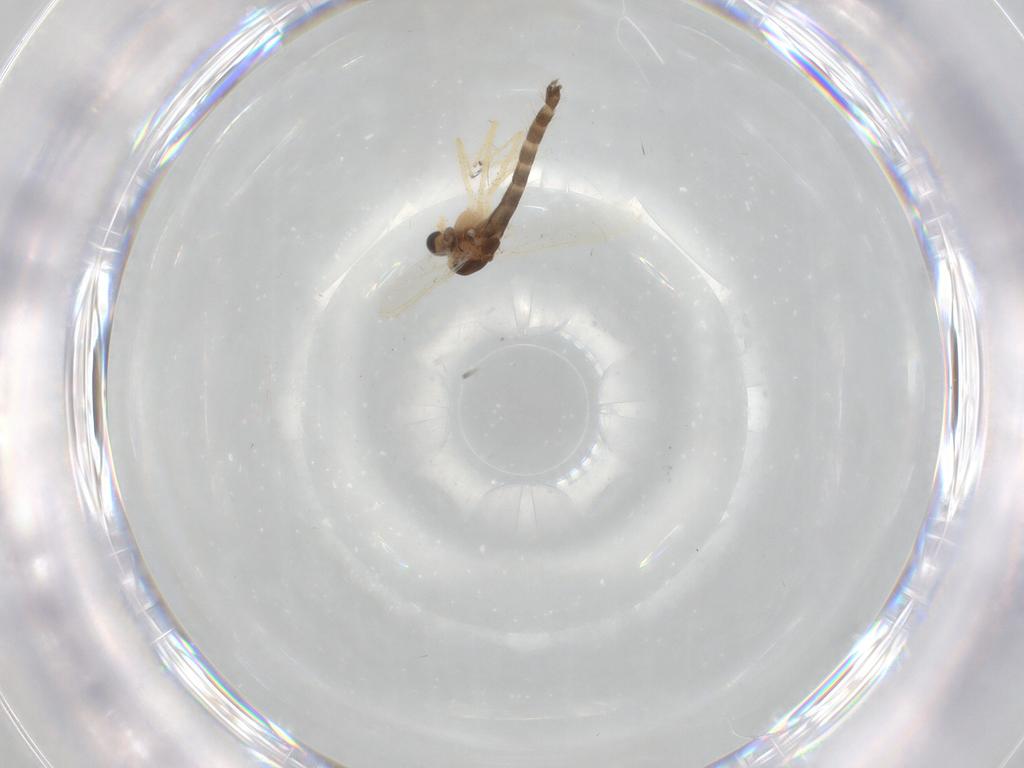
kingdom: Animalia
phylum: Arthropoda
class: Insecta
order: Diptera
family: Chironomidae
